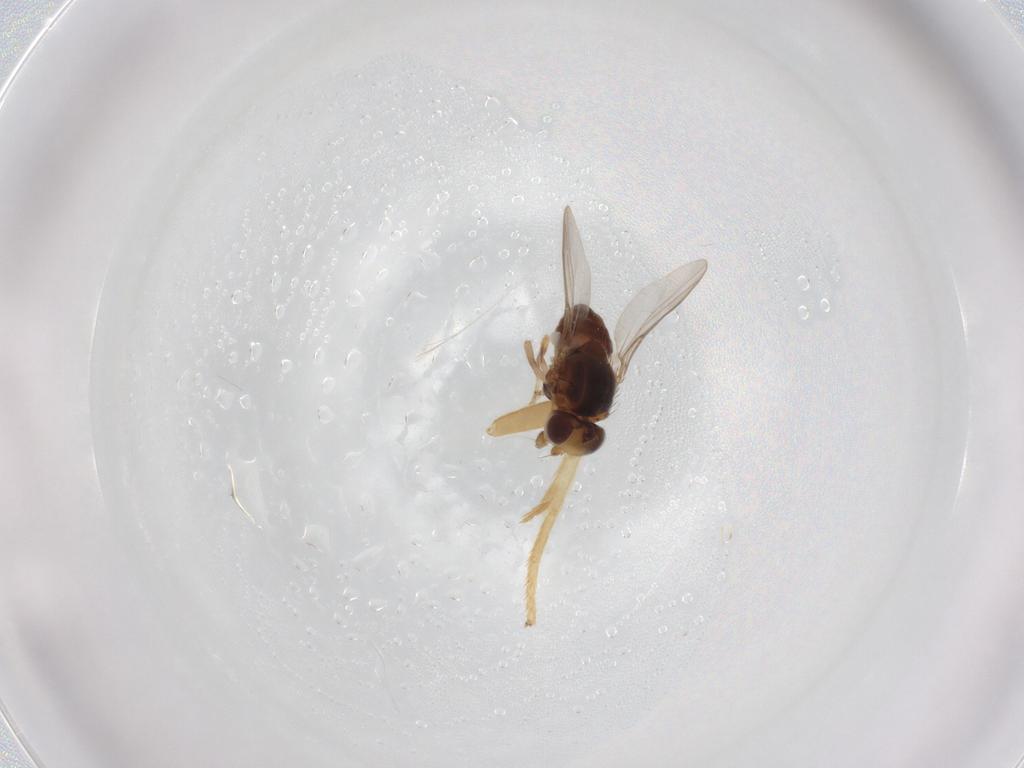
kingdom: Animalia
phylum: Arthropoda
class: Insecta
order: Diptera
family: Chloropidae
